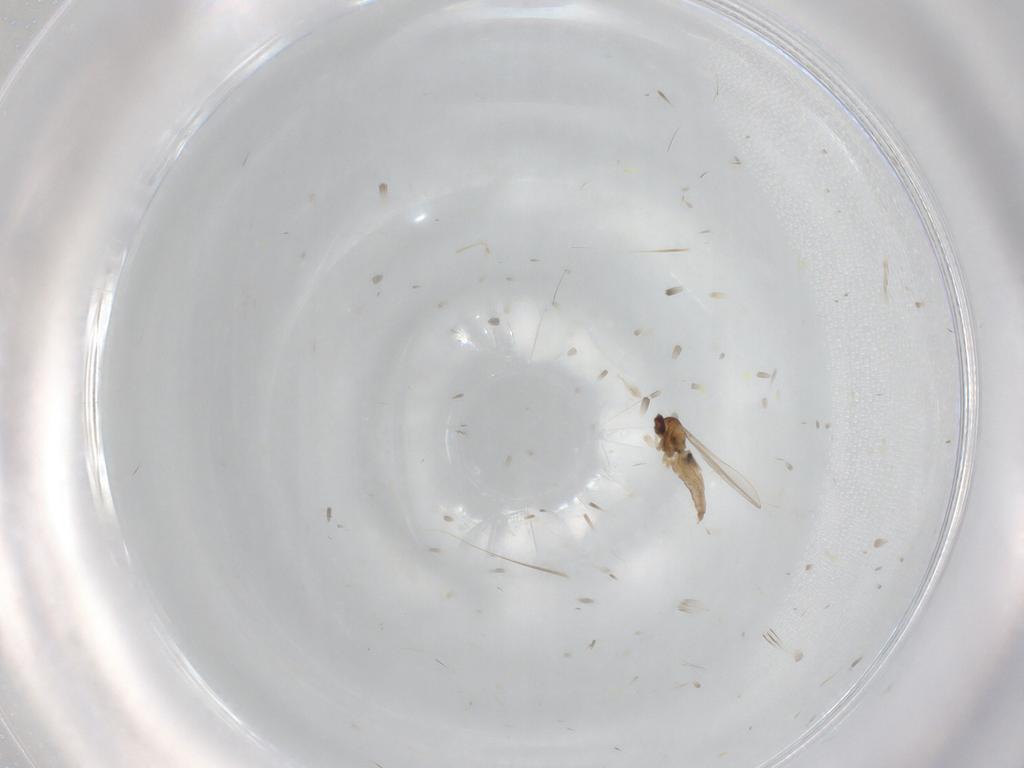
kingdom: Animalia
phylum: Arthropoda
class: Insecta
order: Diptera
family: Cecidomyiidae
